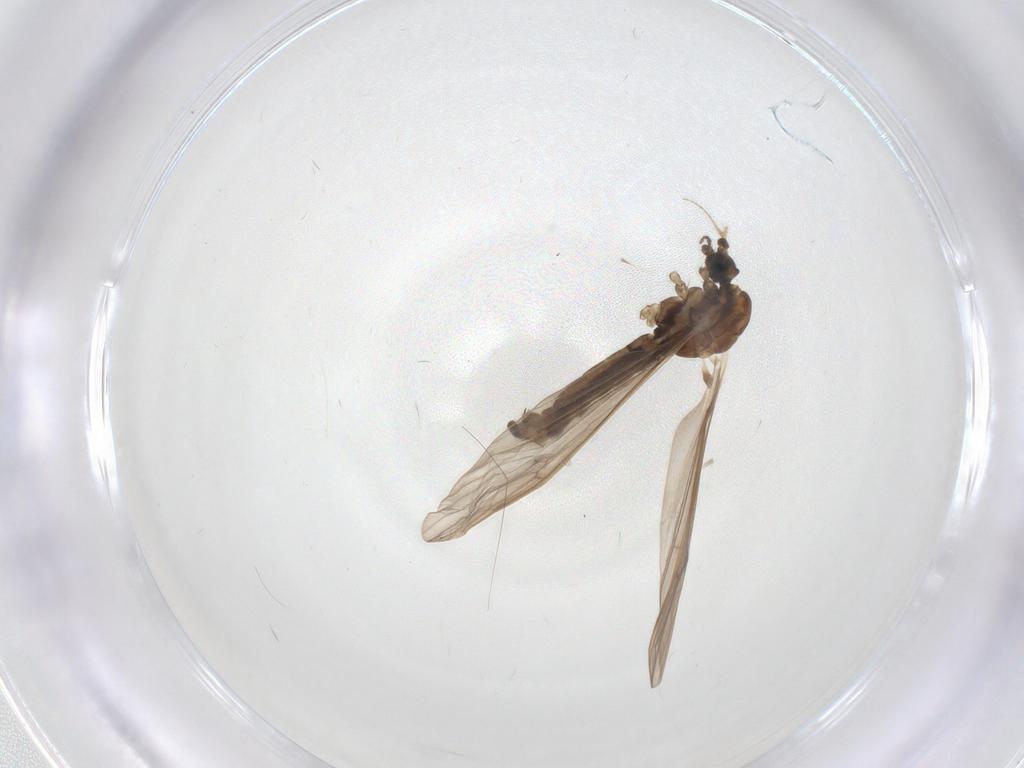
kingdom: Animalia
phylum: Arthropoda
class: Insecta
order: Diptera
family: Limoniidae
